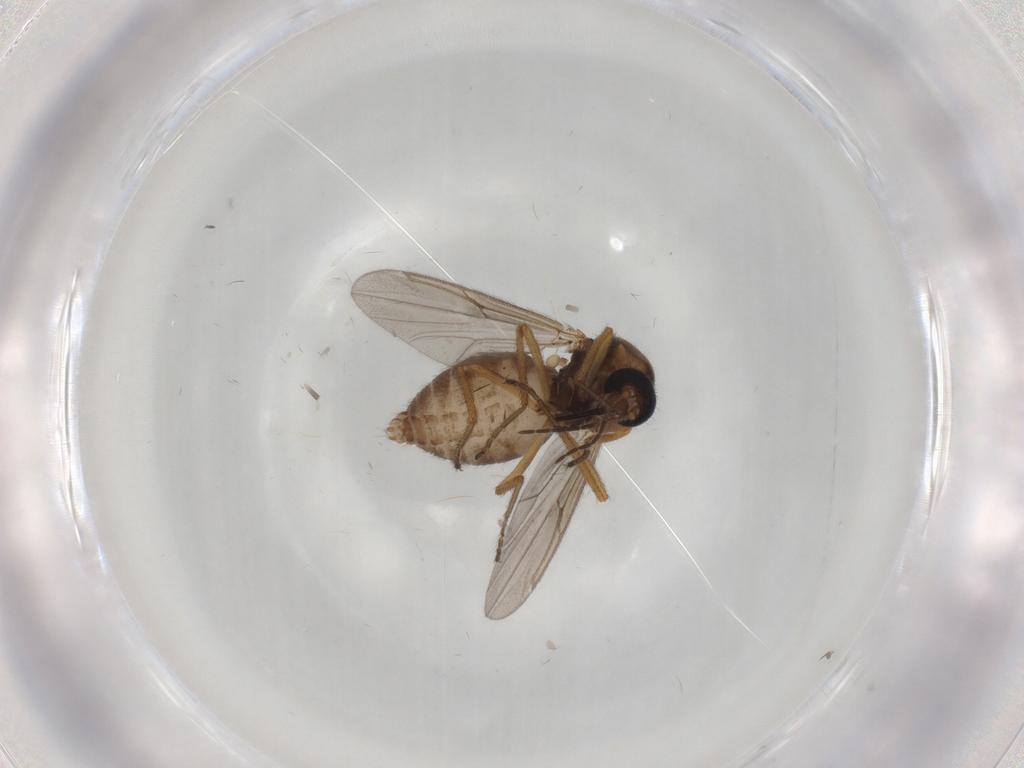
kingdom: Animalia
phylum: Arthropoda
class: Insecta
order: Diptera
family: Ceratopogonidae
